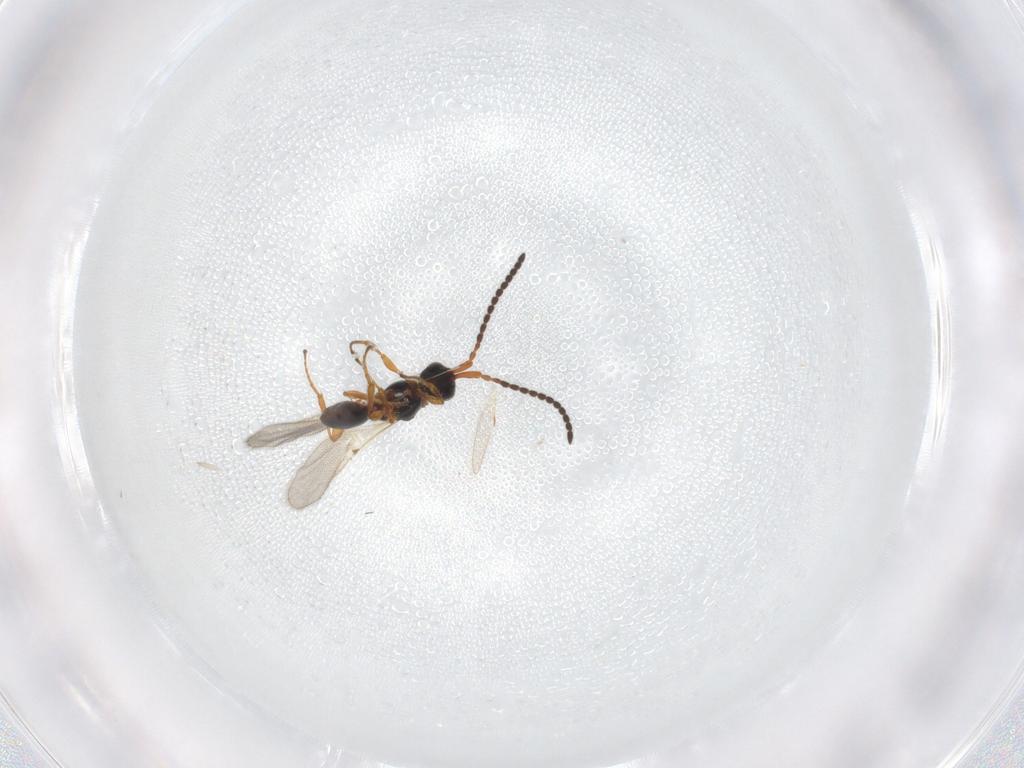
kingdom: Animalia
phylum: Arthropoda
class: Insecta
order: Hymenoptera
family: Diapriidae
